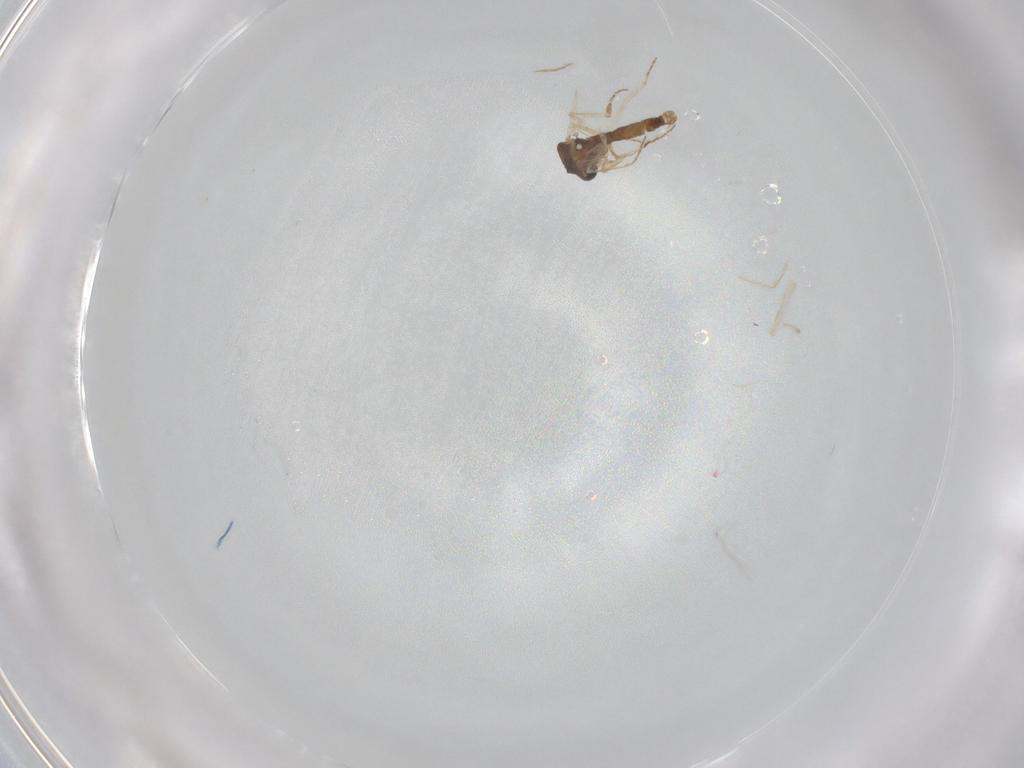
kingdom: Animalia
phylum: Arthropoda
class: Insecta
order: Diptera
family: Ceratopogonidae
